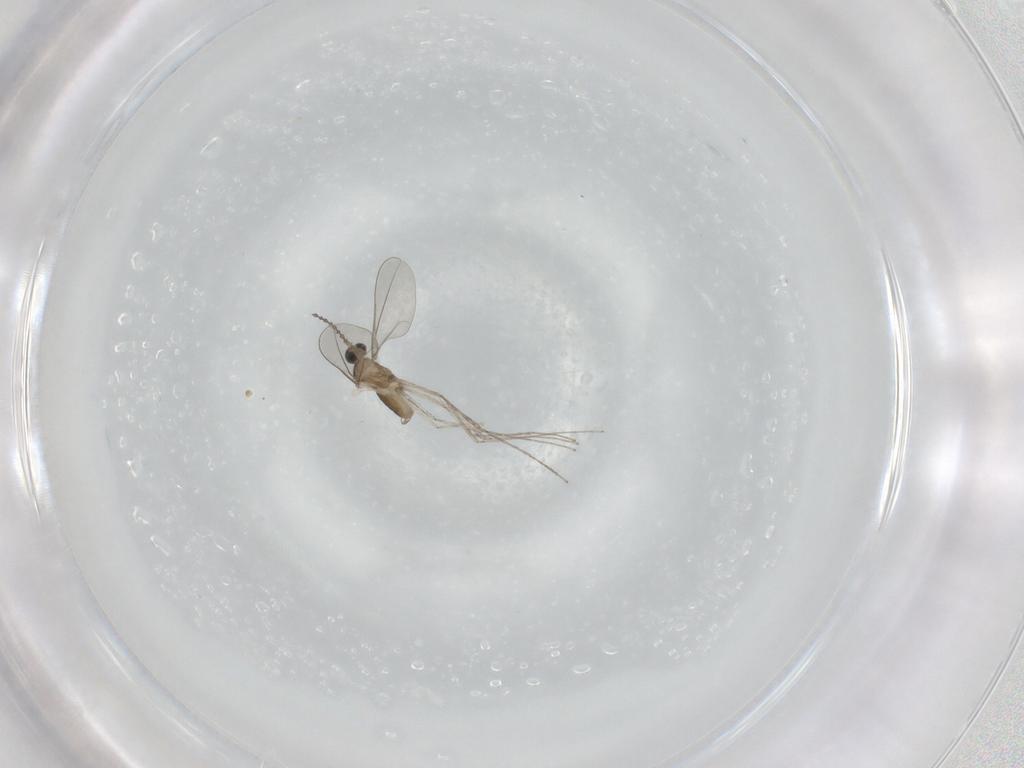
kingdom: Animalia
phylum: Arthropoda
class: Insecta
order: Diptera
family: Cecidomyiidae
